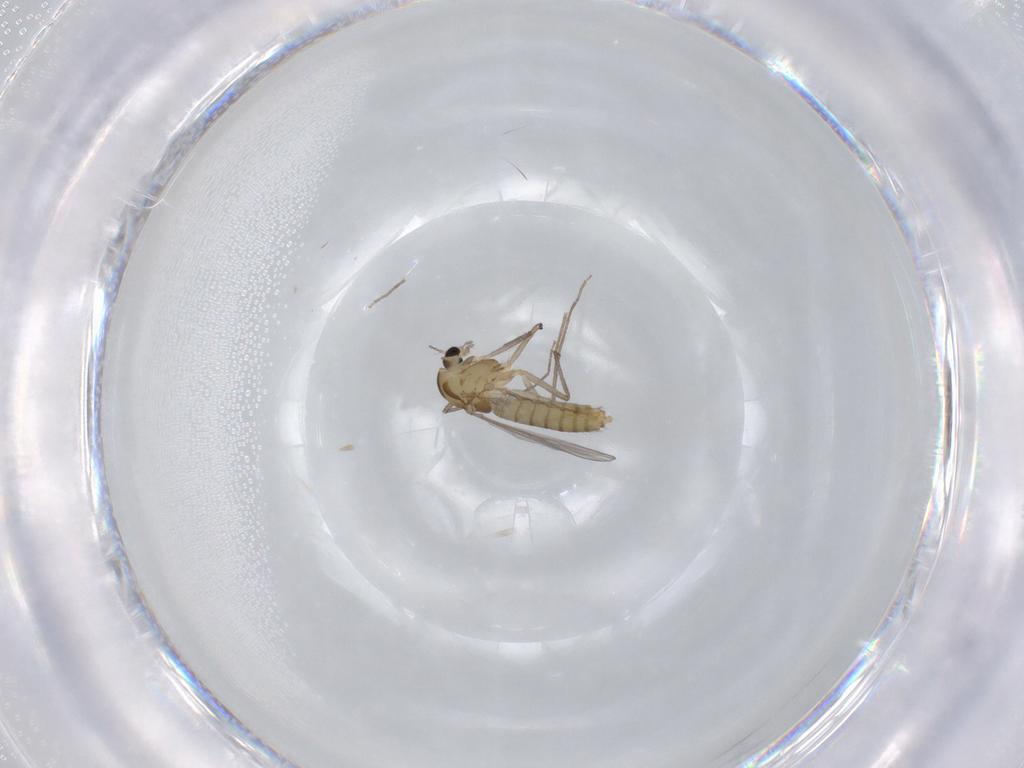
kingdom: Animalia
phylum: Arthropoda
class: Insecta
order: Diptera
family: Chironomidae
